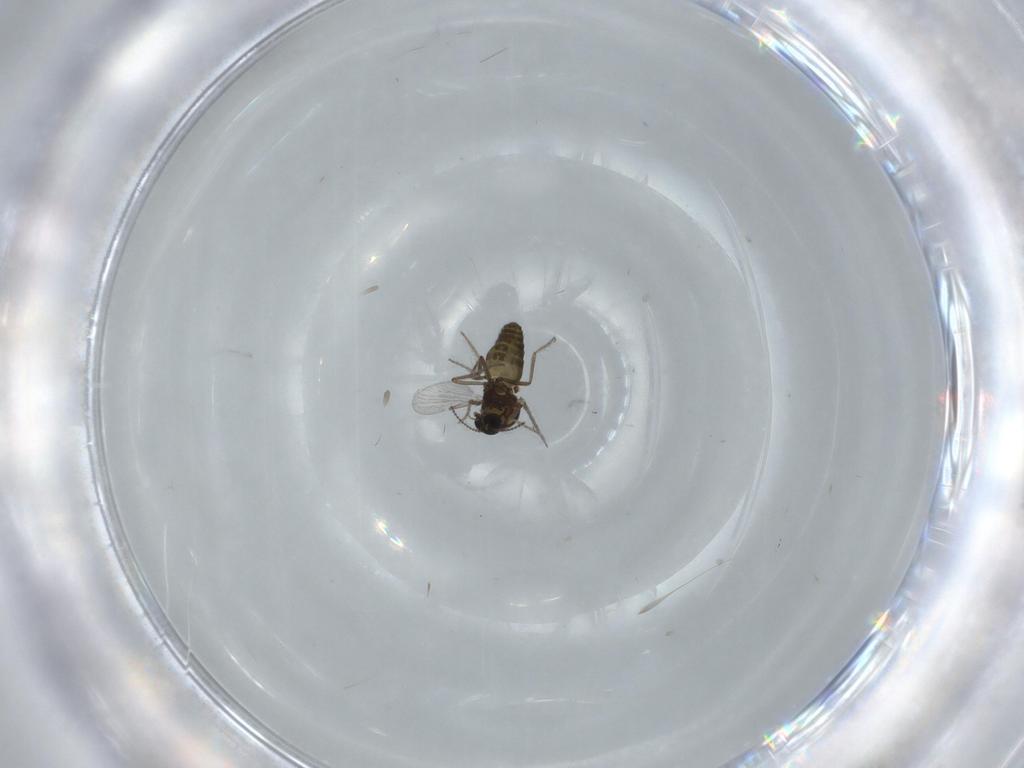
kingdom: Animalia
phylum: Arthropoda
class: Insecta
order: Diptera
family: Ceratopogonidae
